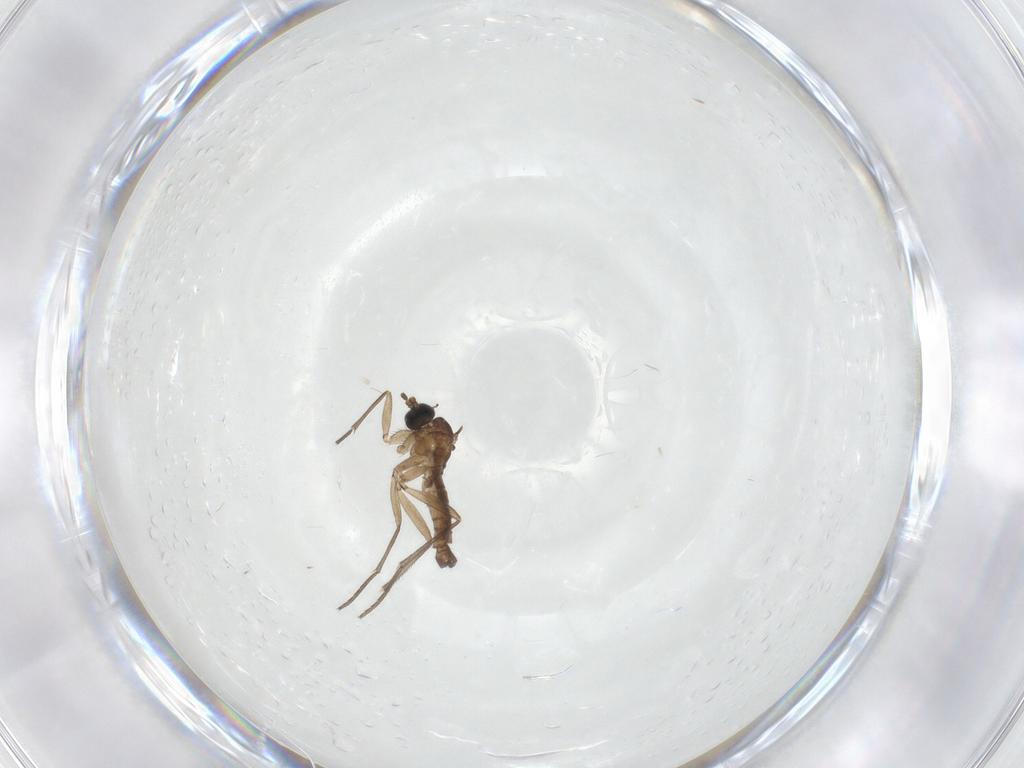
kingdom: Animalia
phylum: Arthropoda
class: Insecta
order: Diptera
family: Sciaridae
